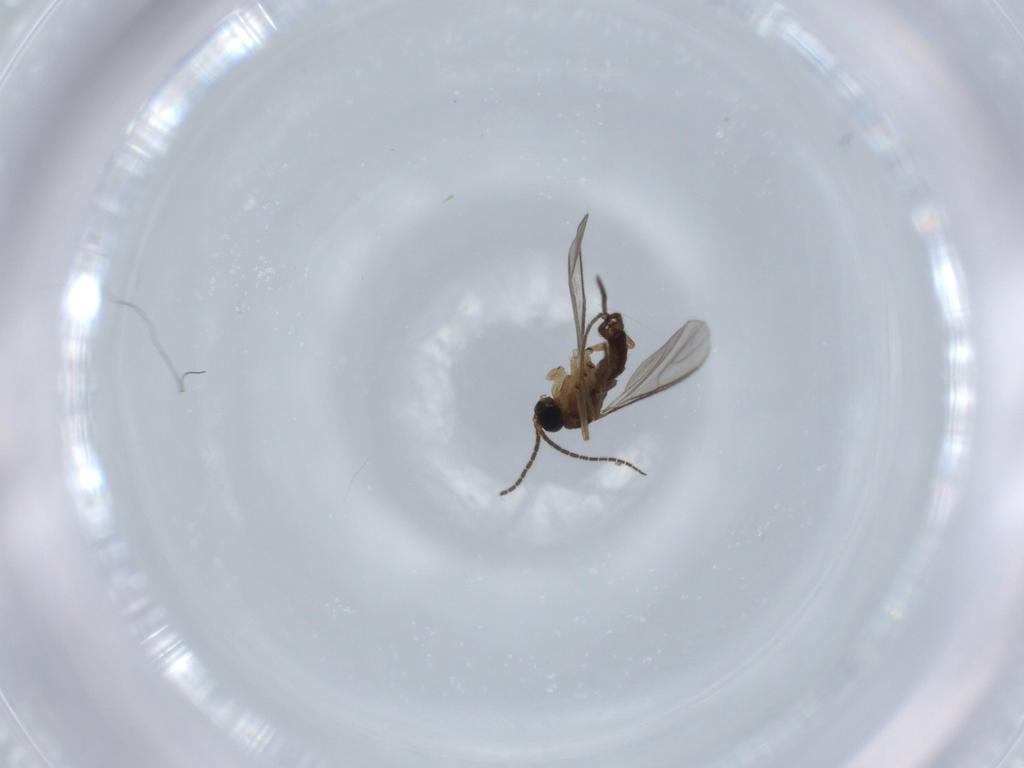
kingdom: Animalia
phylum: Arthropoda
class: Insecta
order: Diptera
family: Sciaridae
